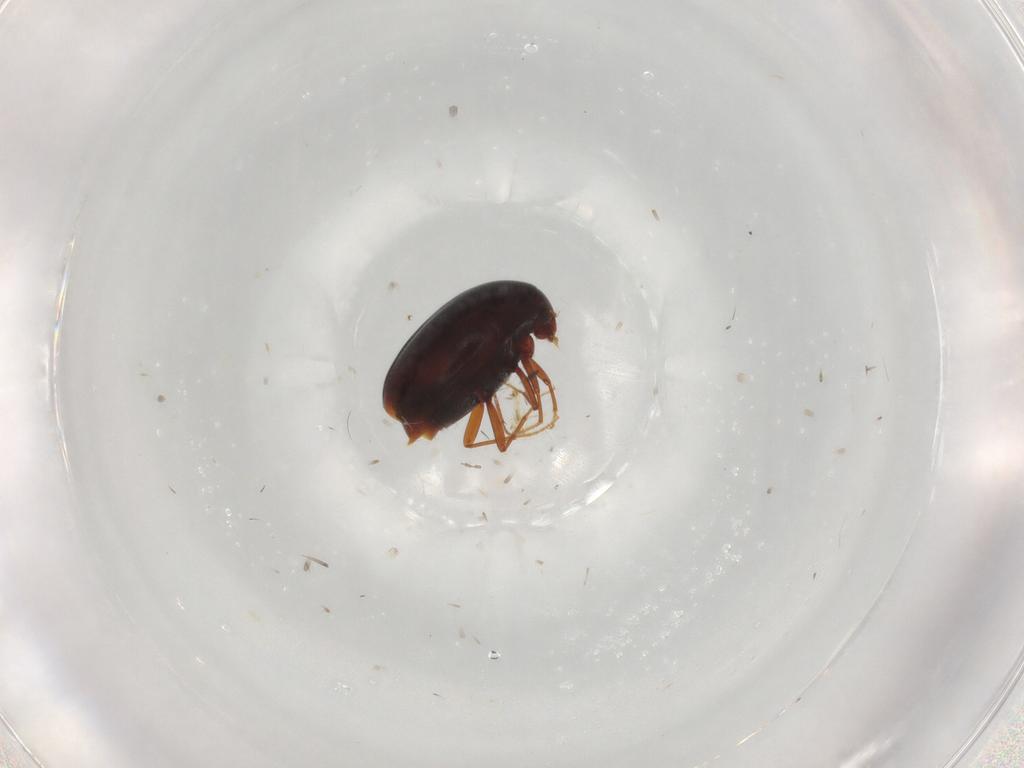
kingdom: Animalia
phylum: Arthropoda
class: Insecta
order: Coleoptera
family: Staphylinidae
